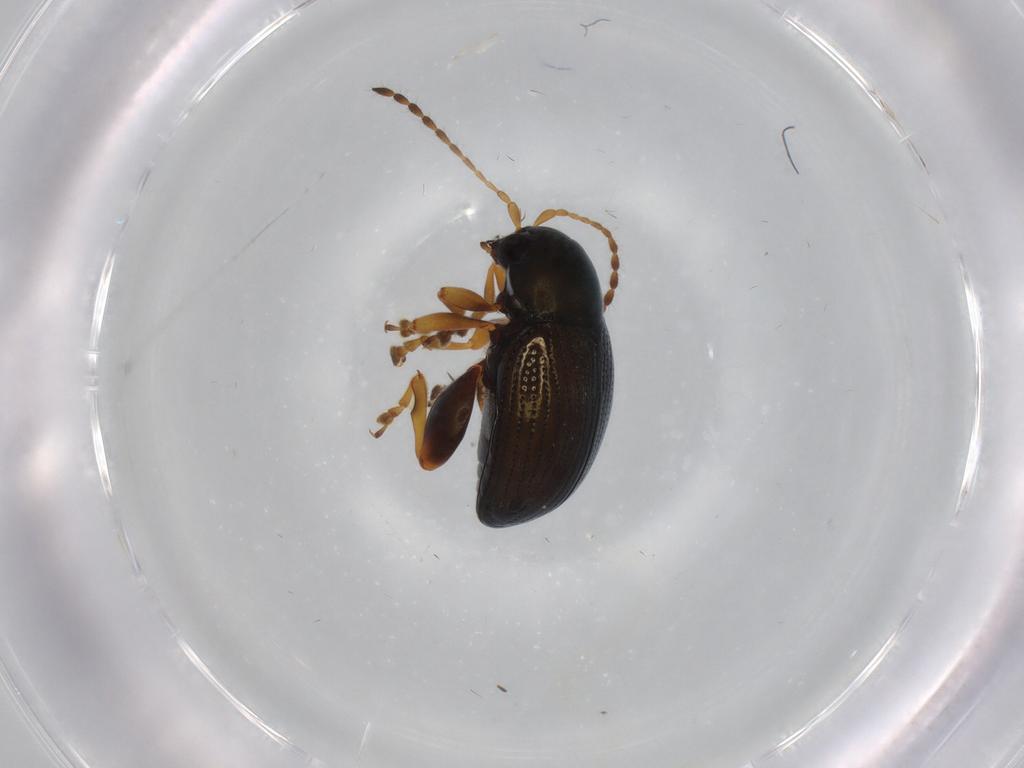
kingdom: Animalia
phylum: Arthropoda
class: Insecta
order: Coleoptera
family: Chrysomelidae
